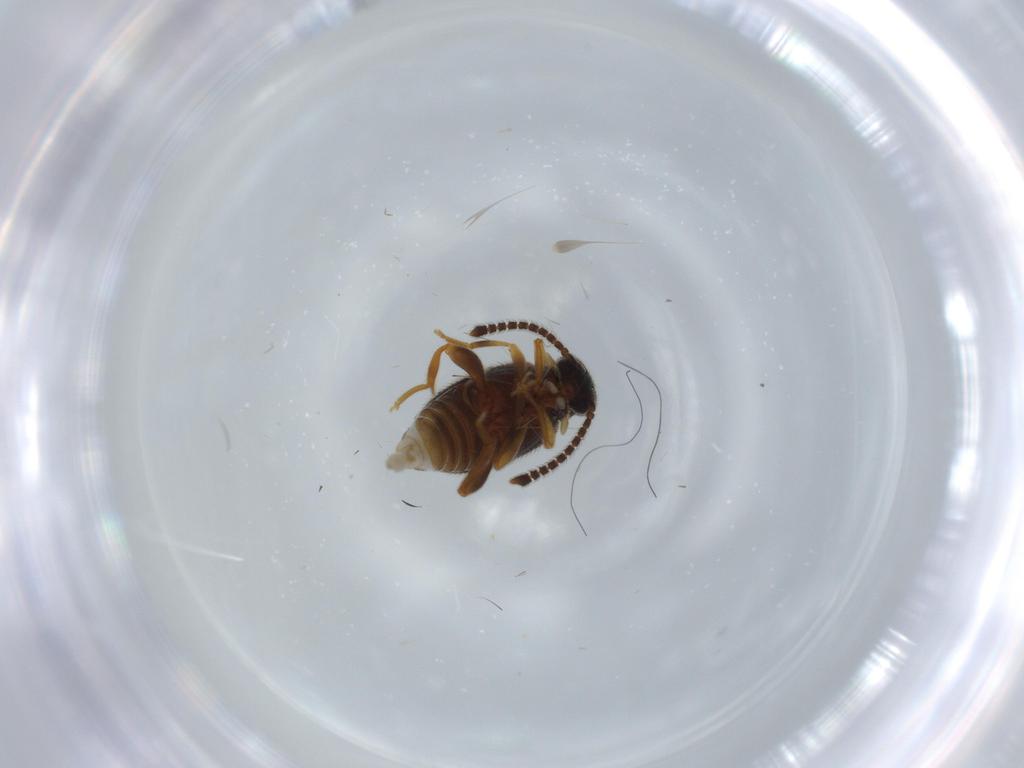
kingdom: Animalia
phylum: Arthropoda
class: Insecta
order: Coleoptera
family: Aderidae
